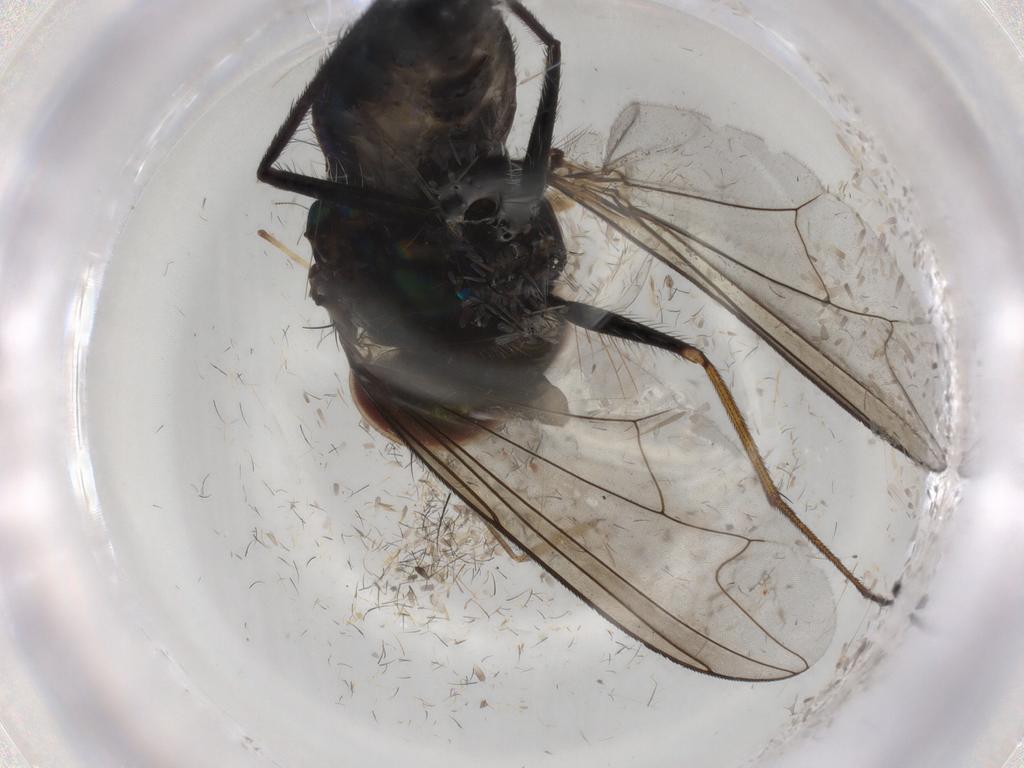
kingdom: Animalia
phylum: Arthropoda
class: Insecta
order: Diptera
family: Dolichopodidae
